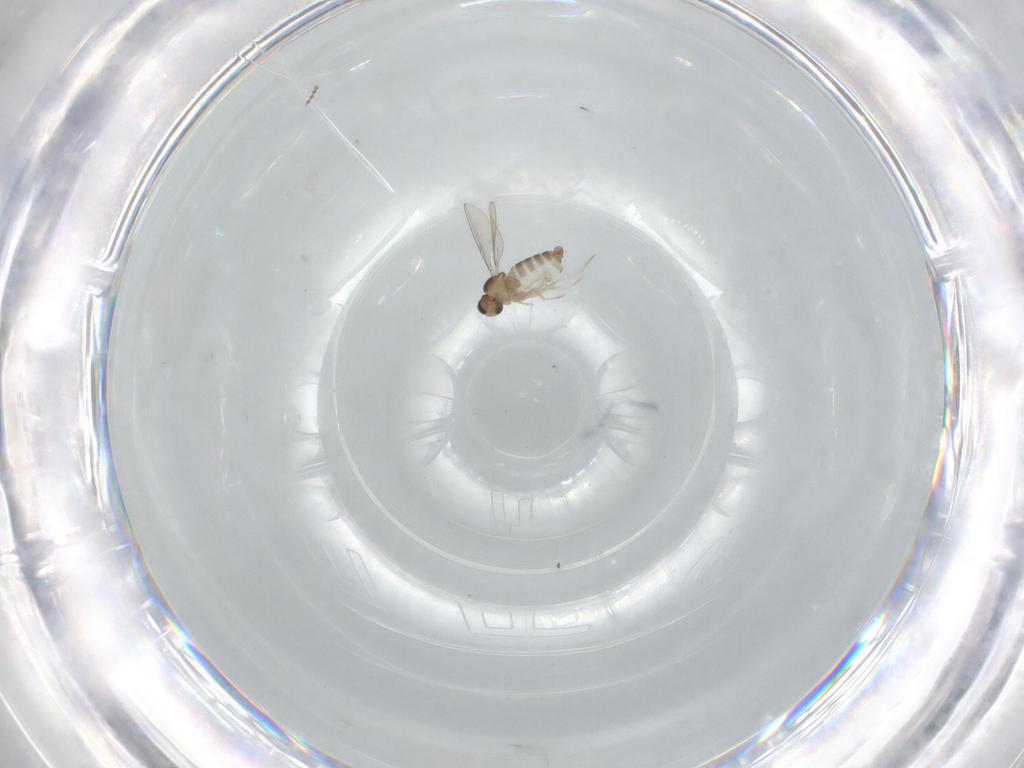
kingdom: Animalia
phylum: Arthropoda
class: Insecta
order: Diptera
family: Cecidomyiidae
